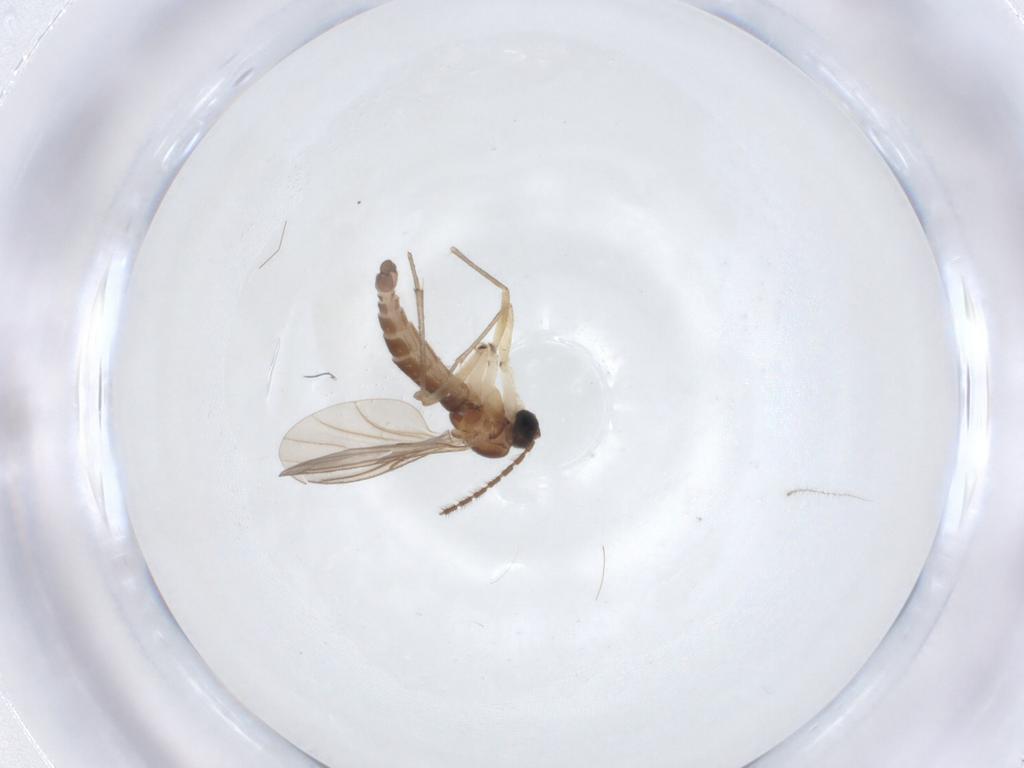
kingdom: Animalia
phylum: Arthropoda
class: Insecta
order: Diptera
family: Sciaridae
